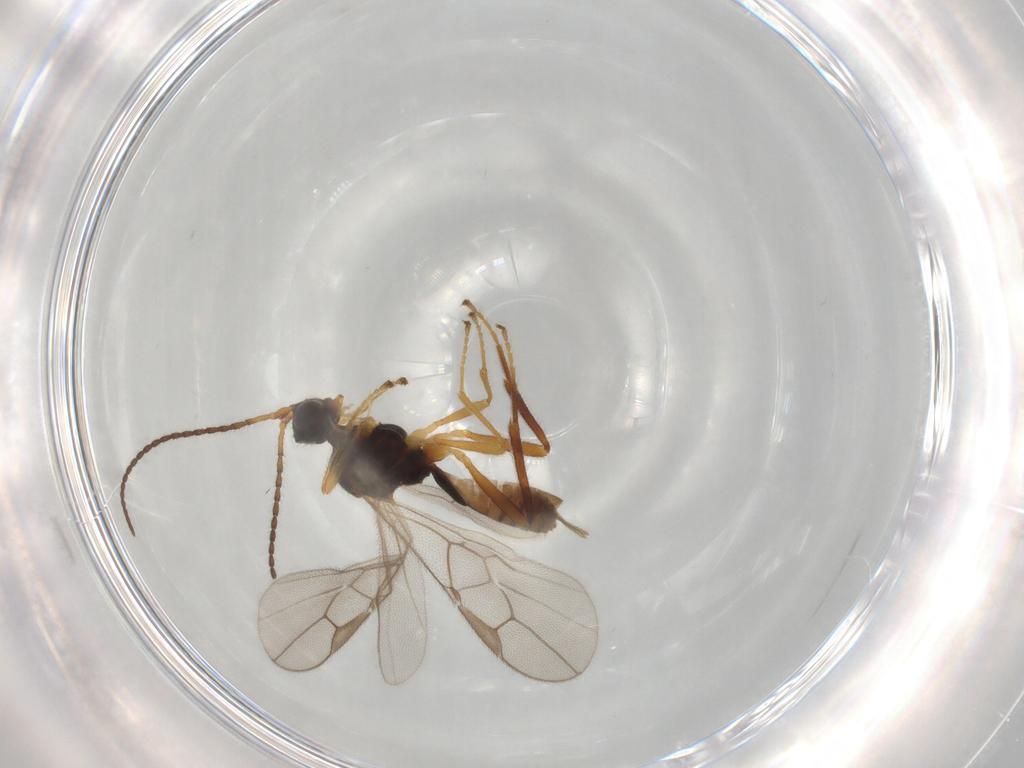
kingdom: Animalia
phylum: Arthropoda
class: Insecta
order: Hymenoptera
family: Braconidae
